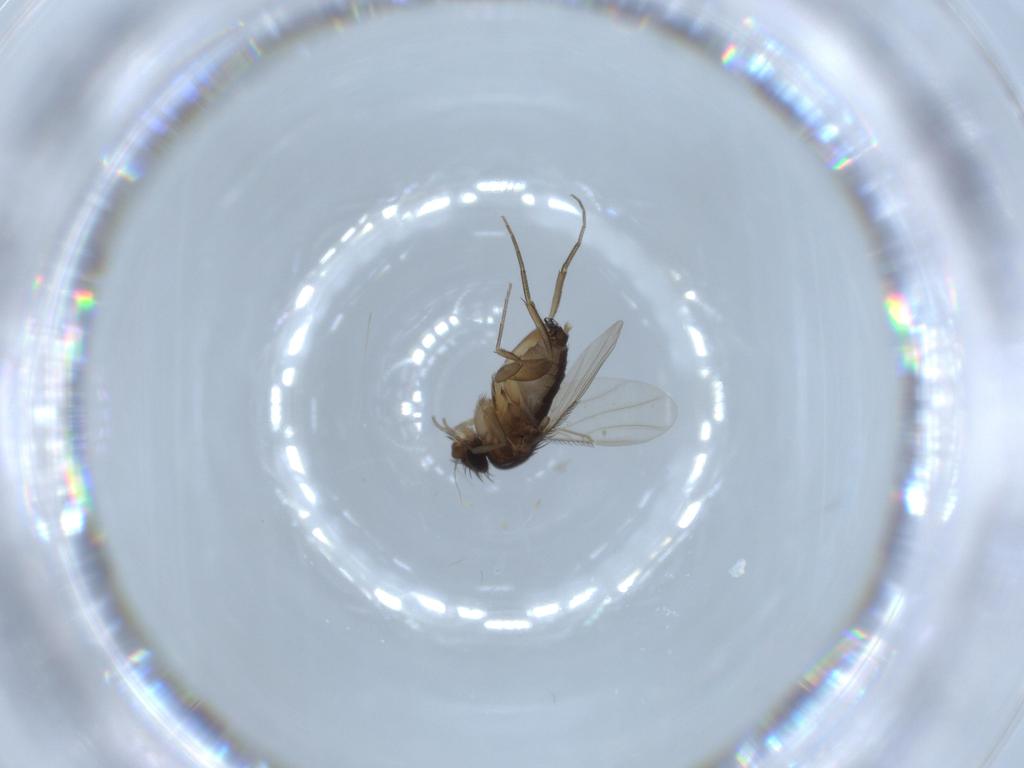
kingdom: Animalia
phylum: Arthropoda
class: Insecta
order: Diptera
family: Phoridae
